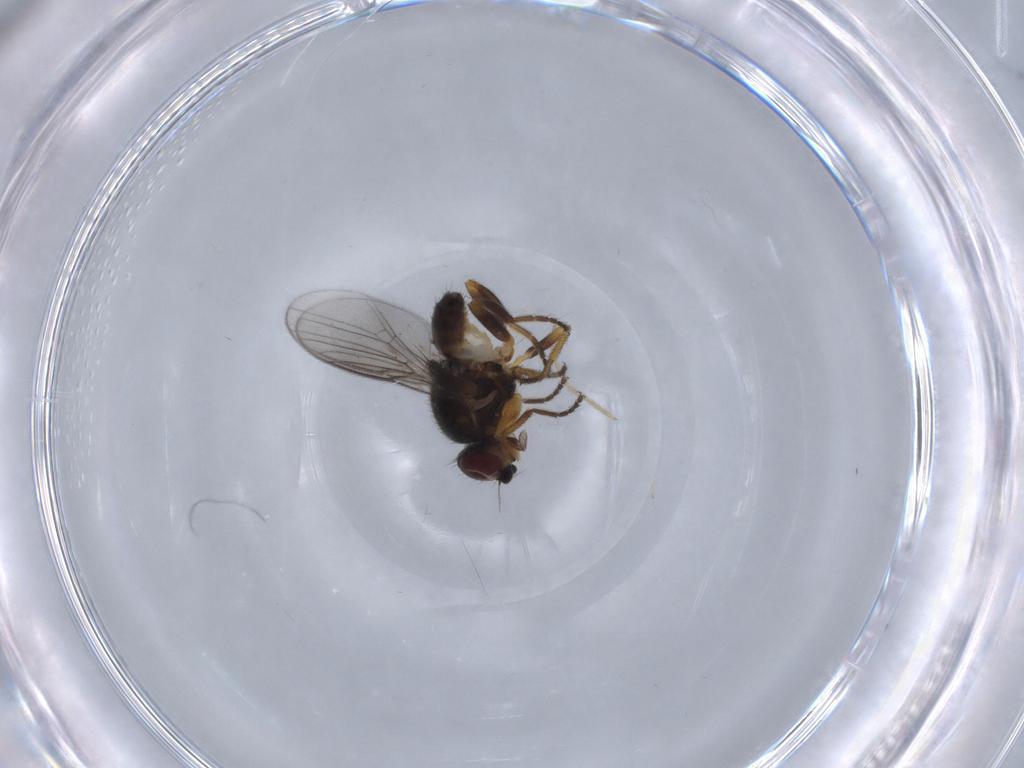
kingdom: Animalia
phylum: Arthropoda
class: Insecta
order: Diptera
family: Chloropidae
